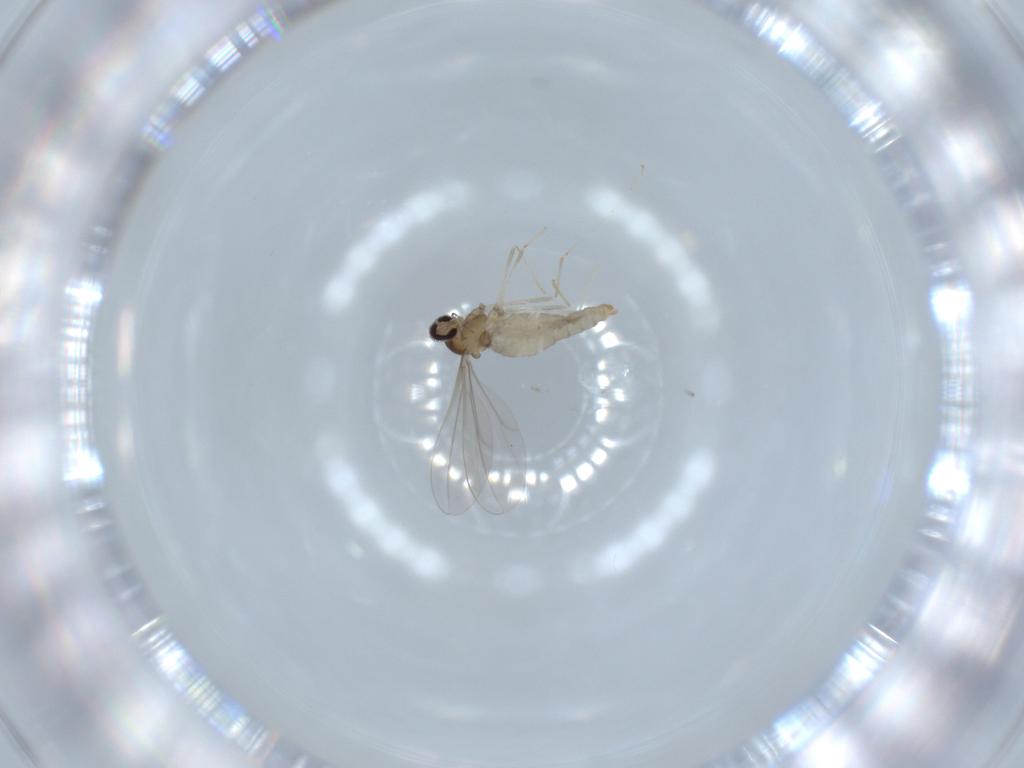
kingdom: Animalia
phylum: Arthropoda
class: Insecta
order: Diptera
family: Cecidomyiidae
